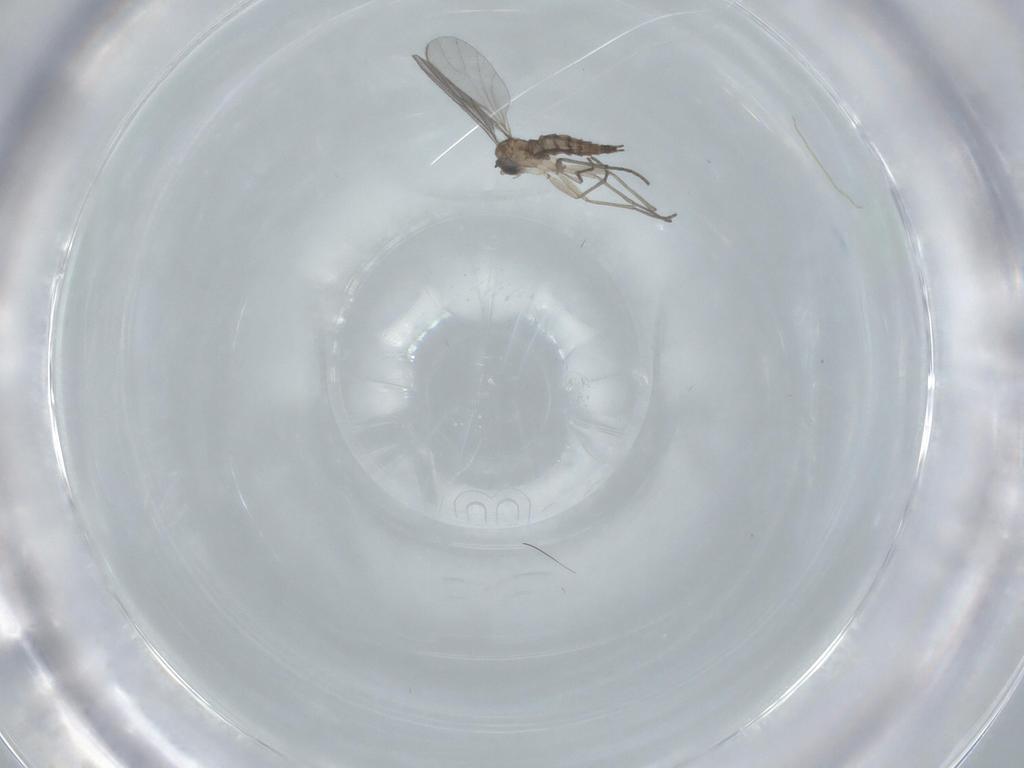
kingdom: Animalia
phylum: Arthropoda
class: Insecta
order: Diptera
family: Sciaridae
